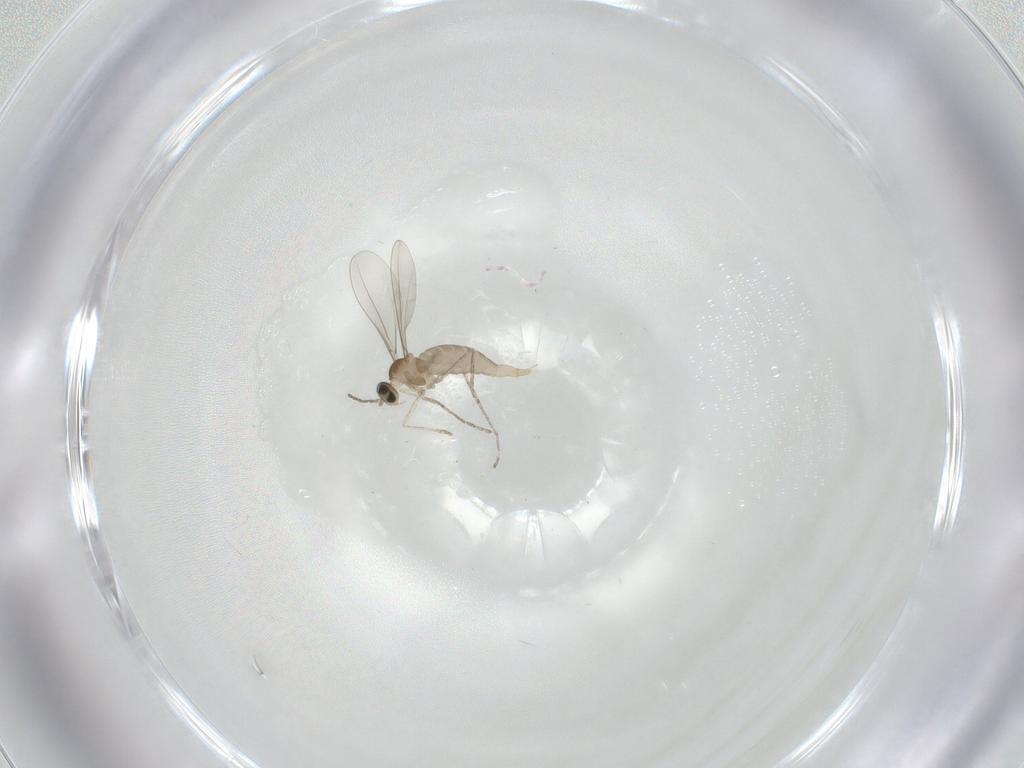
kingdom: Animalia
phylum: Arthropoda
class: Insecta
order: Diptera
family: Cecidomyiidae
